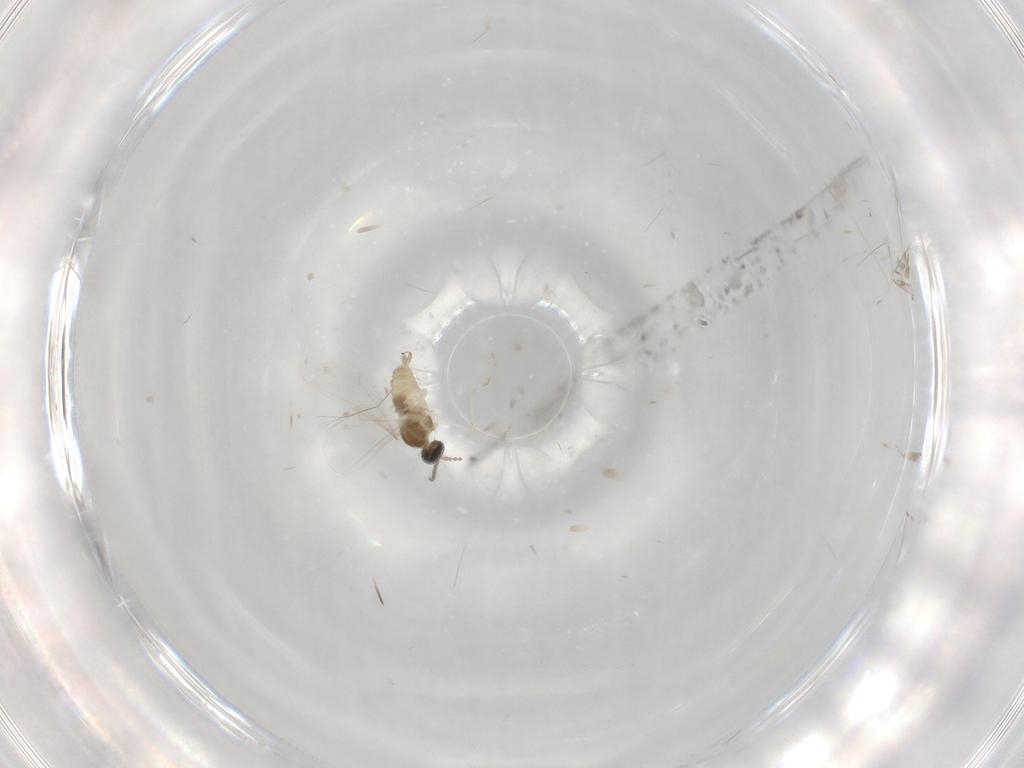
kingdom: Animalia
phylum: Arthropoda
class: Insecta
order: Diptera
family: Cecidomyiidae
